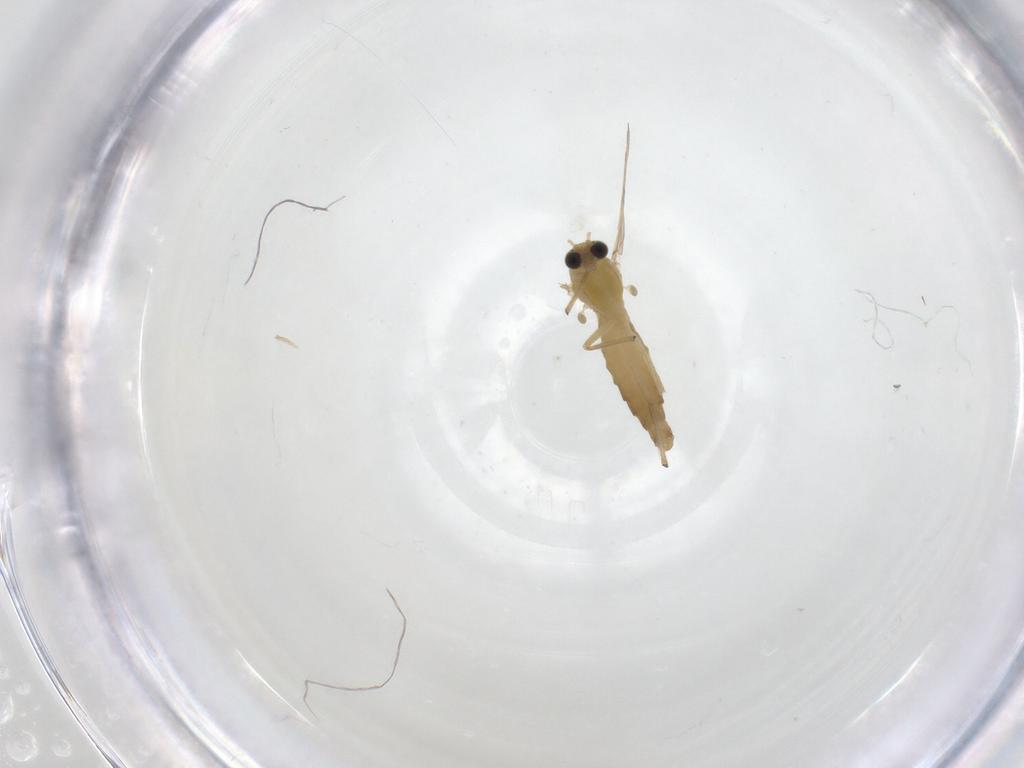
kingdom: Animalia
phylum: Arthropoda
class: Insecta
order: Diptera
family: Chironomidae
